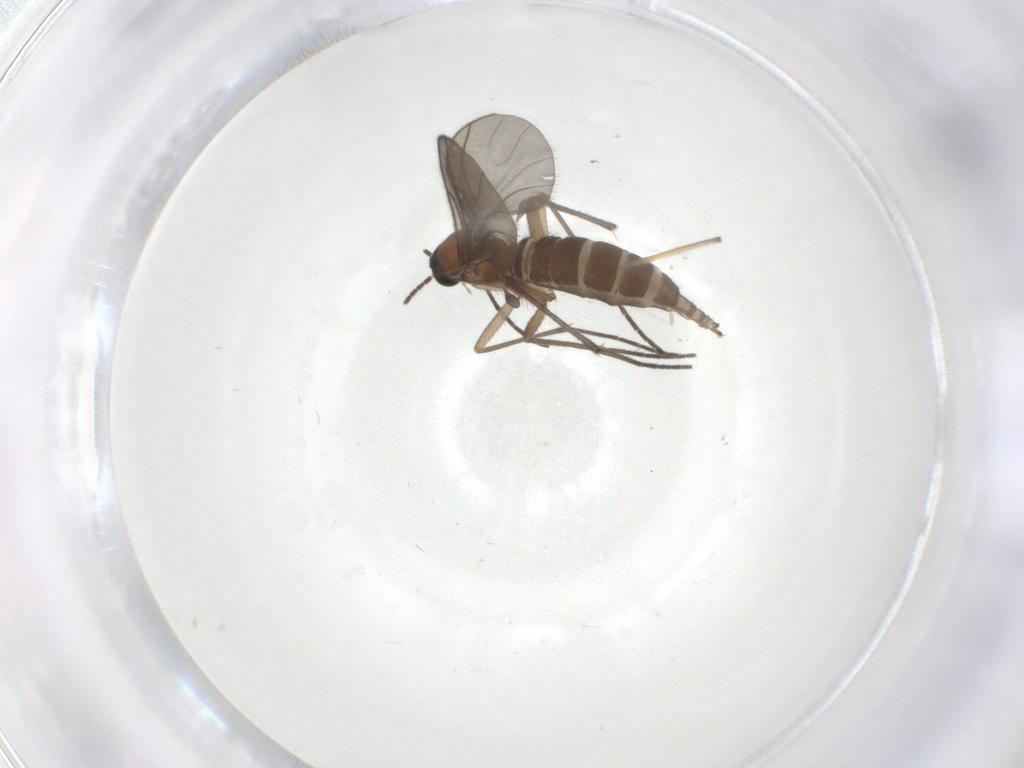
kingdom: Animalia
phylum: Arthropoda
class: Insecta
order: Diptera
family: Sciaridae
